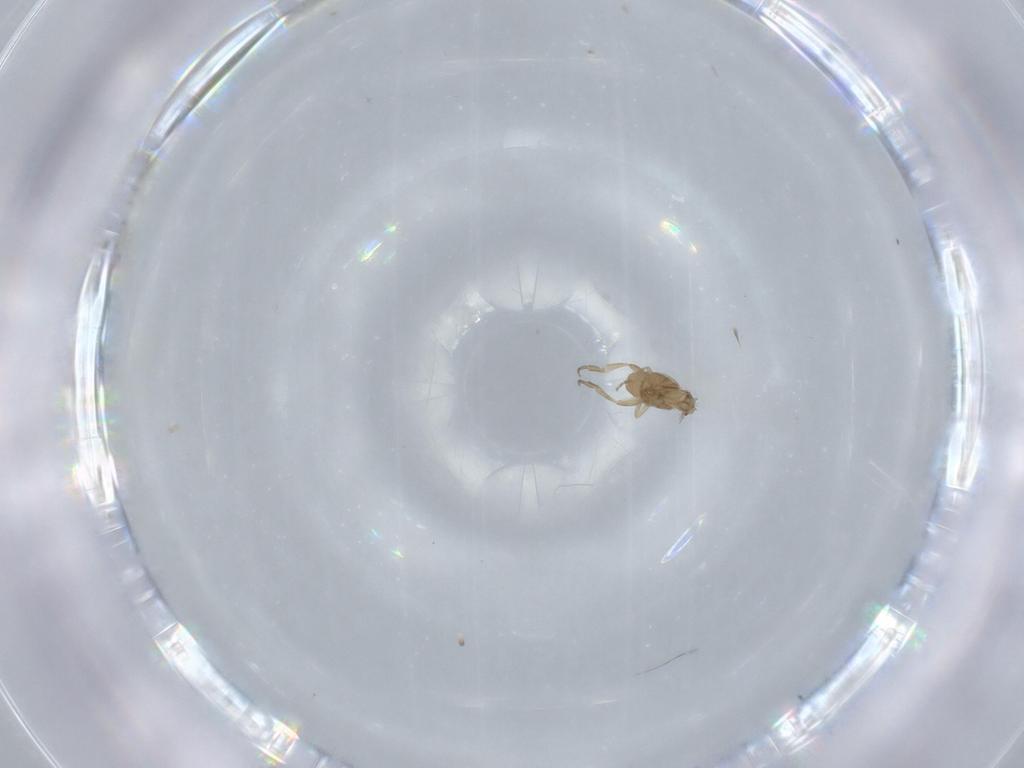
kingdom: Animalia
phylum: Arthropoda
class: Insecta
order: Diptera
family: Phoridae
